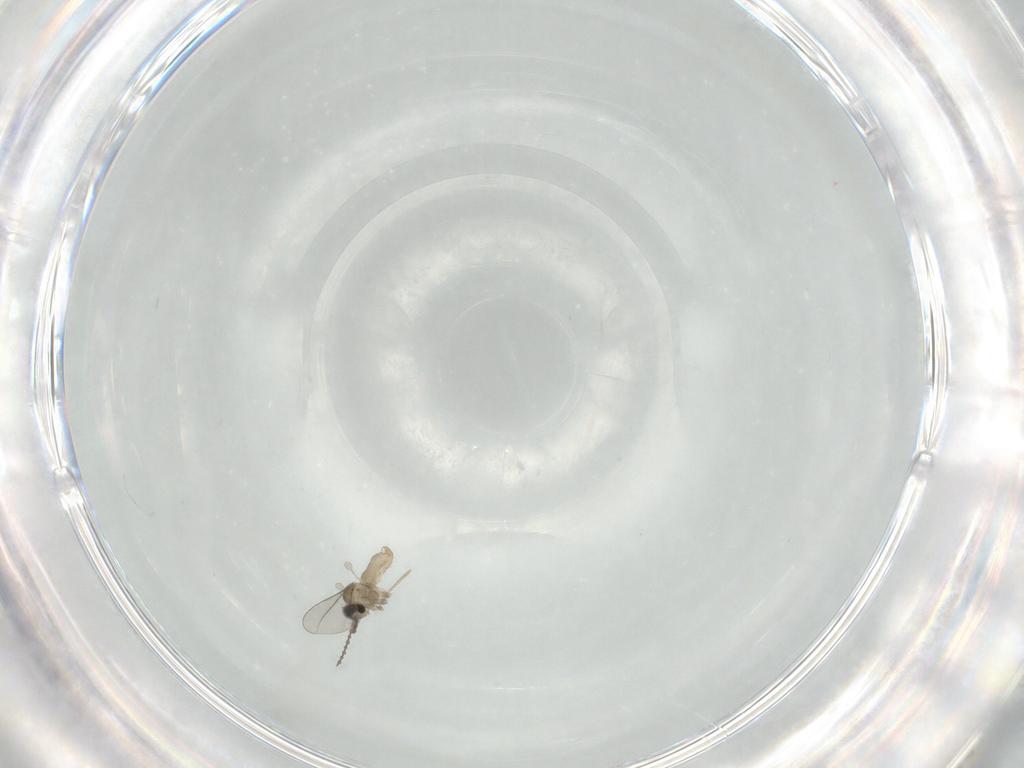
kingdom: Animalia
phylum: Arthropoda
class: Insecta
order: Diptera
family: Cecidomyiidae
